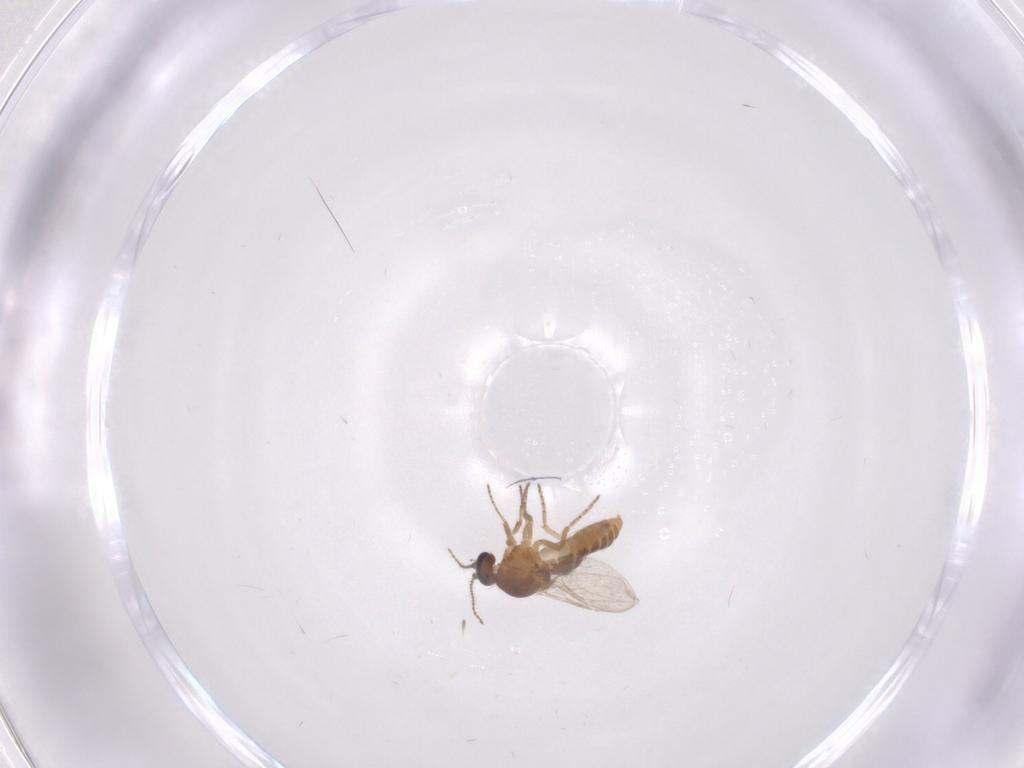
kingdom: Animalia
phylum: Arthropoda
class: Insecta
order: Diptera
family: Ceratopogonidae
